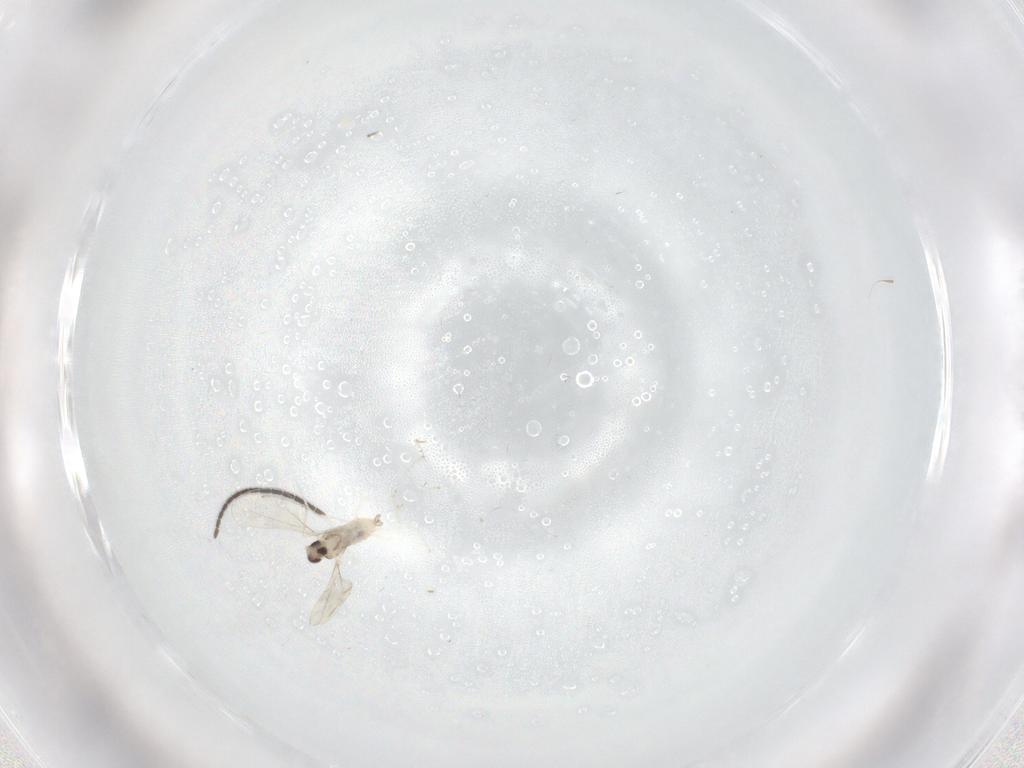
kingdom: Animalia
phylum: Arthropoda
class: Insecta
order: Diptera
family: Cecidomyiidae
